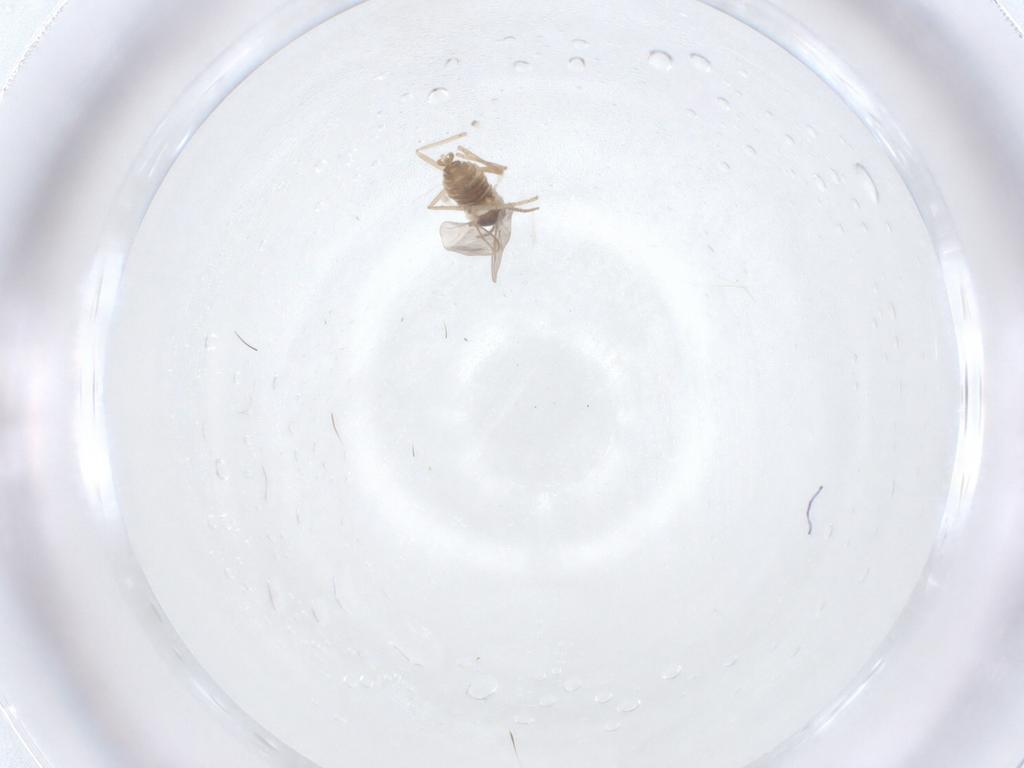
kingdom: Animalia
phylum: Arthropoda
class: Insecta
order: Diptera
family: Cecidomyiidae
